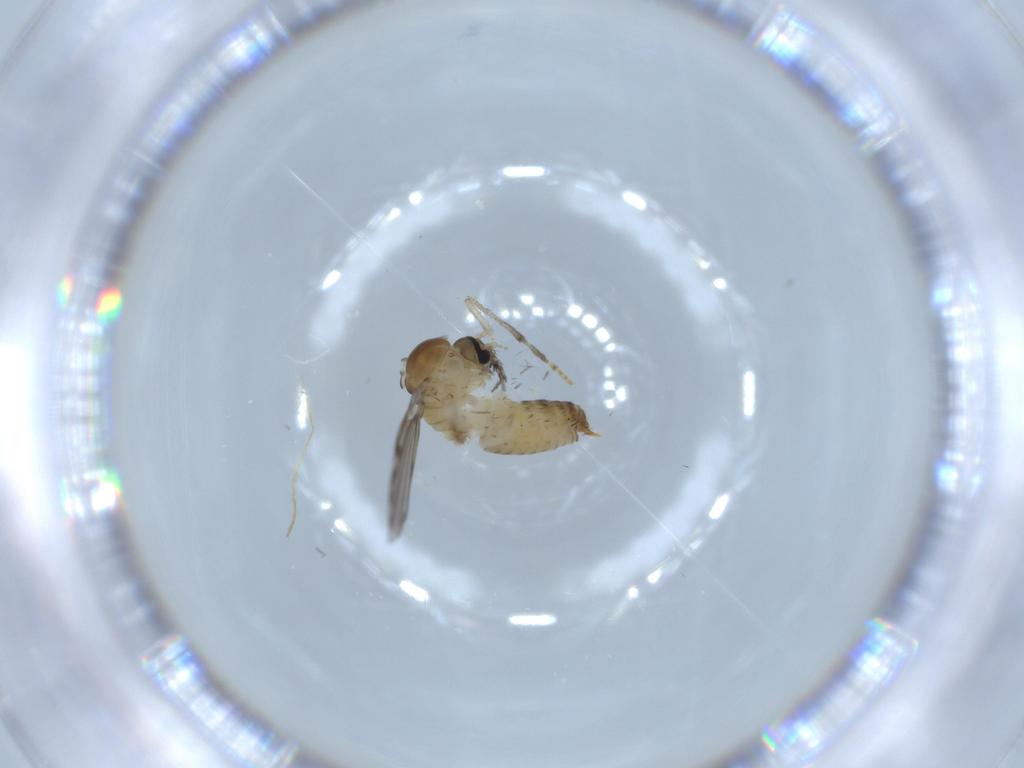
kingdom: Animalia
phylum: Arthropoda
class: Insecta
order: Diptera
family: Psychodidae
